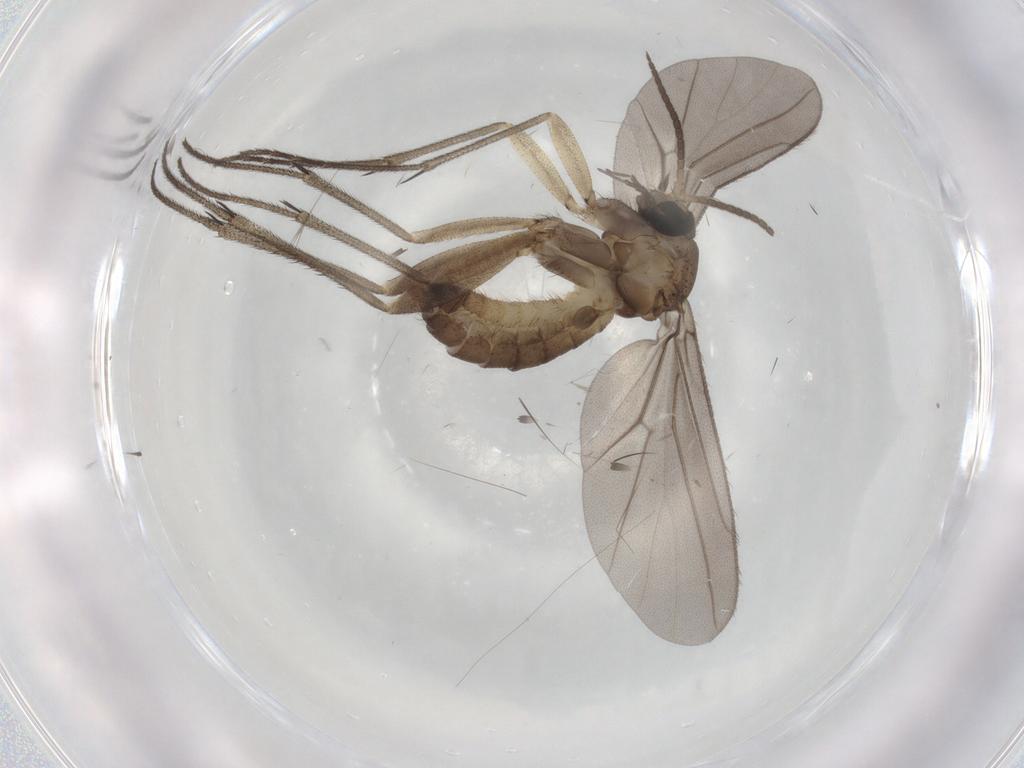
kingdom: Animalia
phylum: Arthropoda
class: Insecta
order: Diptera
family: Diadocidiidae
